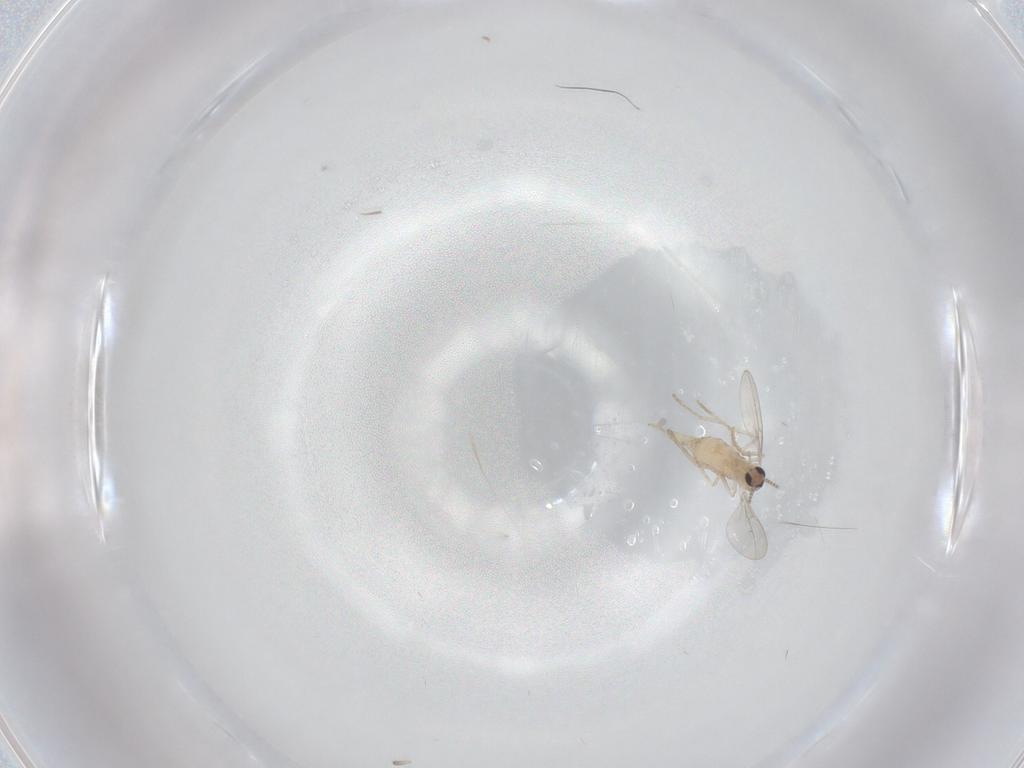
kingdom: Animalia
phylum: Arthropoda
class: Insecta
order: Diptera
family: Cecidomyiidae
